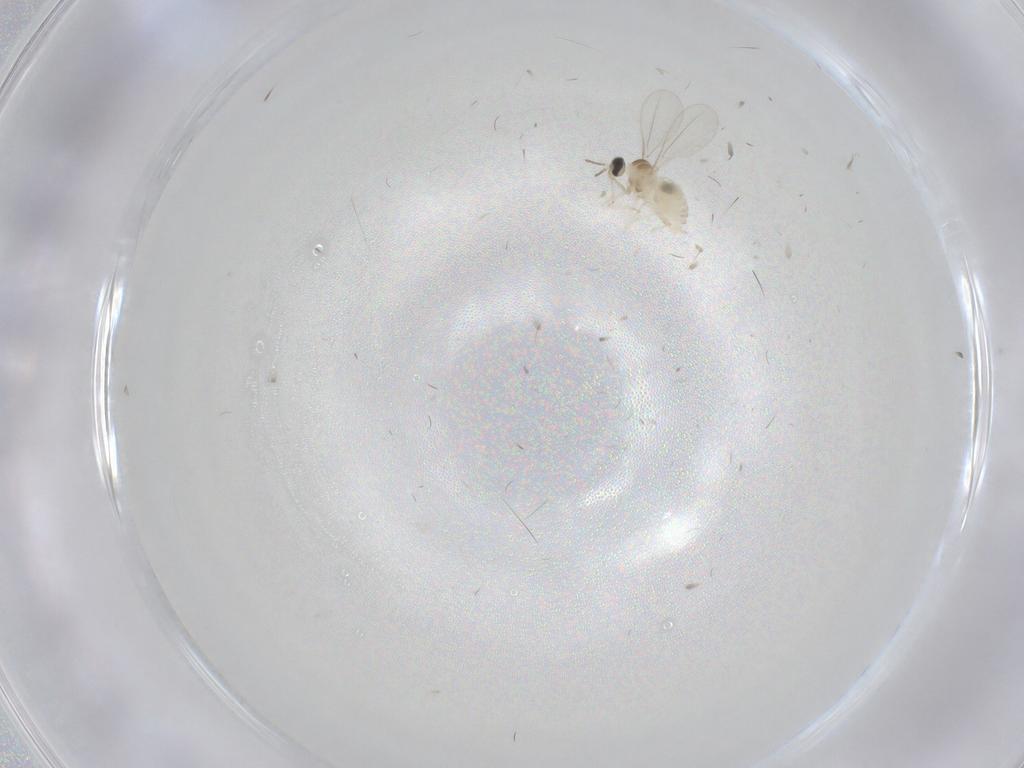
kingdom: Animalia
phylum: Arthropoda
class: Insecta
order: Diptera
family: Cecidomyiidae
